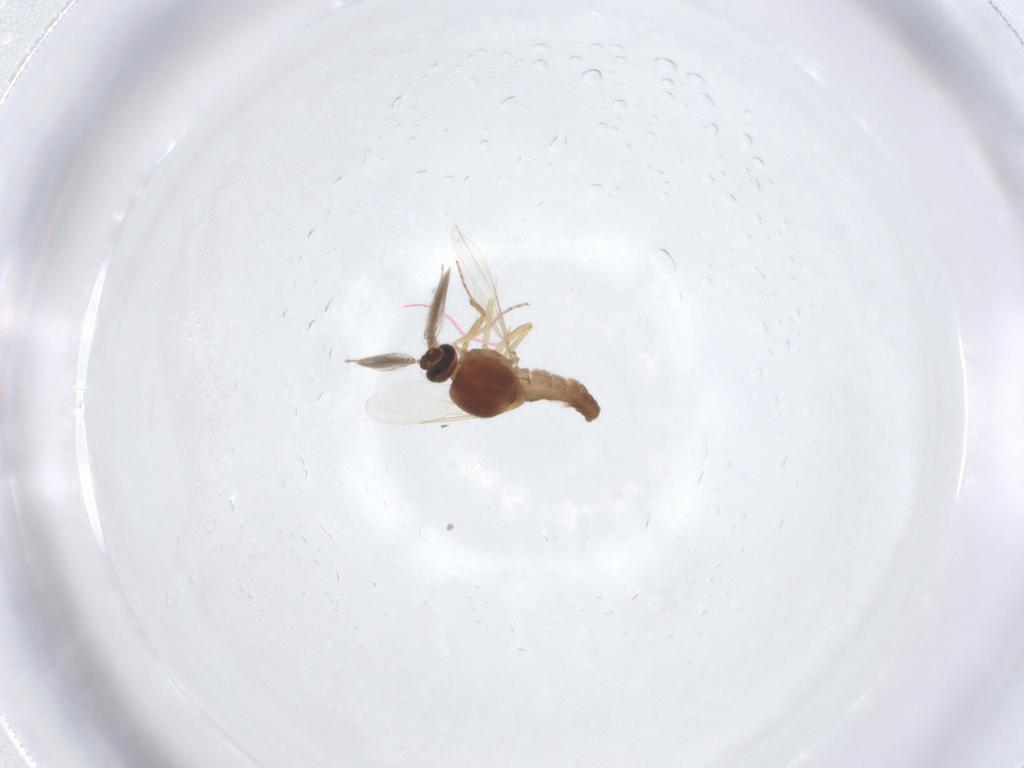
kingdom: Animalia
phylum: Arthropoda
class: Insecta
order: Diptera
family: Ceratopogonidae
